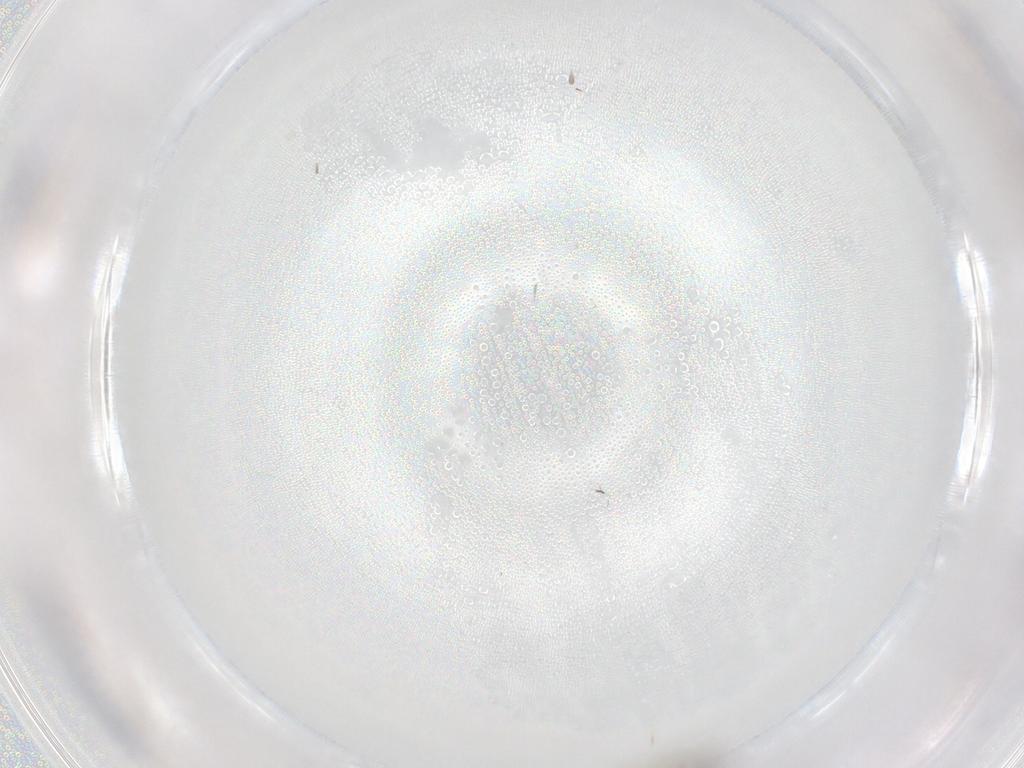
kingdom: Animalia
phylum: Arthropoda
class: Insecta
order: Diptera
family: Chironomidae
